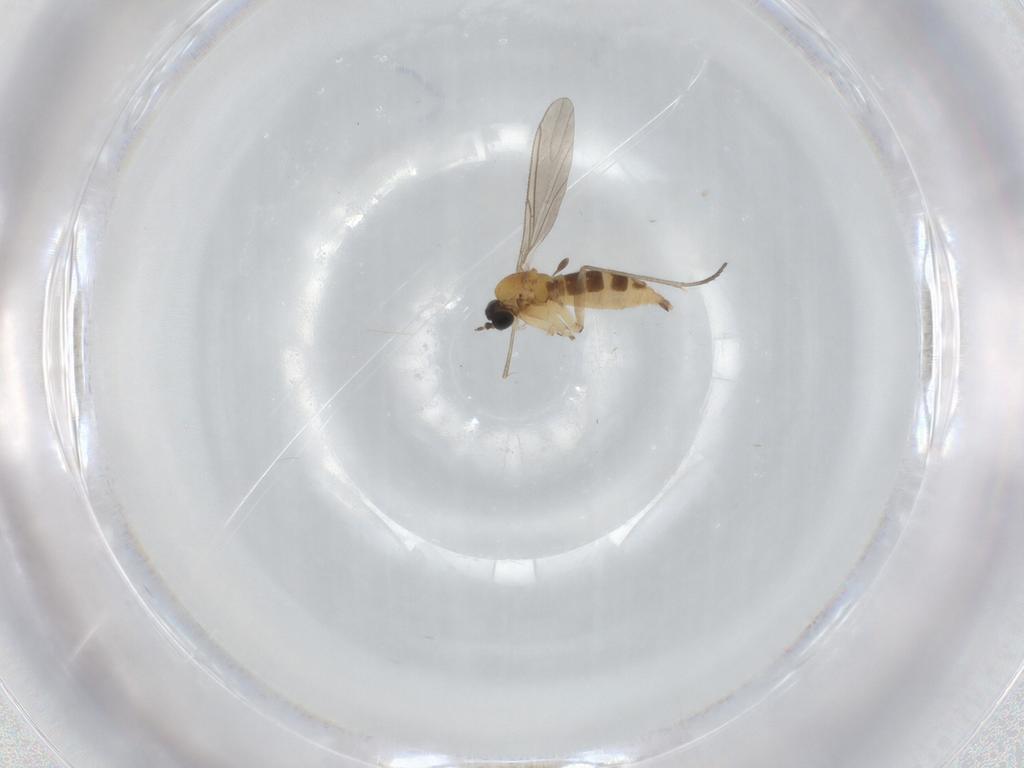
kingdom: Animalia
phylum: Arthropoda
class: Insecta
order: Diptera
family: Sciaridae
